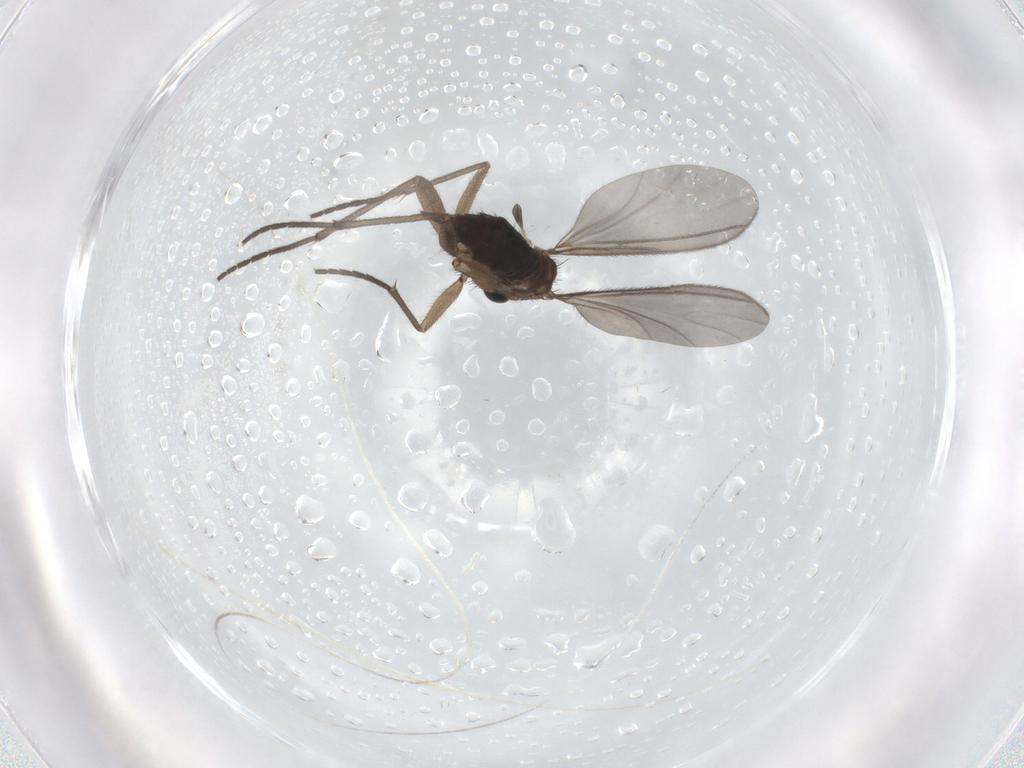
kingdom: Animalia
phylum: Arthropoda
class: Insecta
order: Diptera
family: Sciaridae
